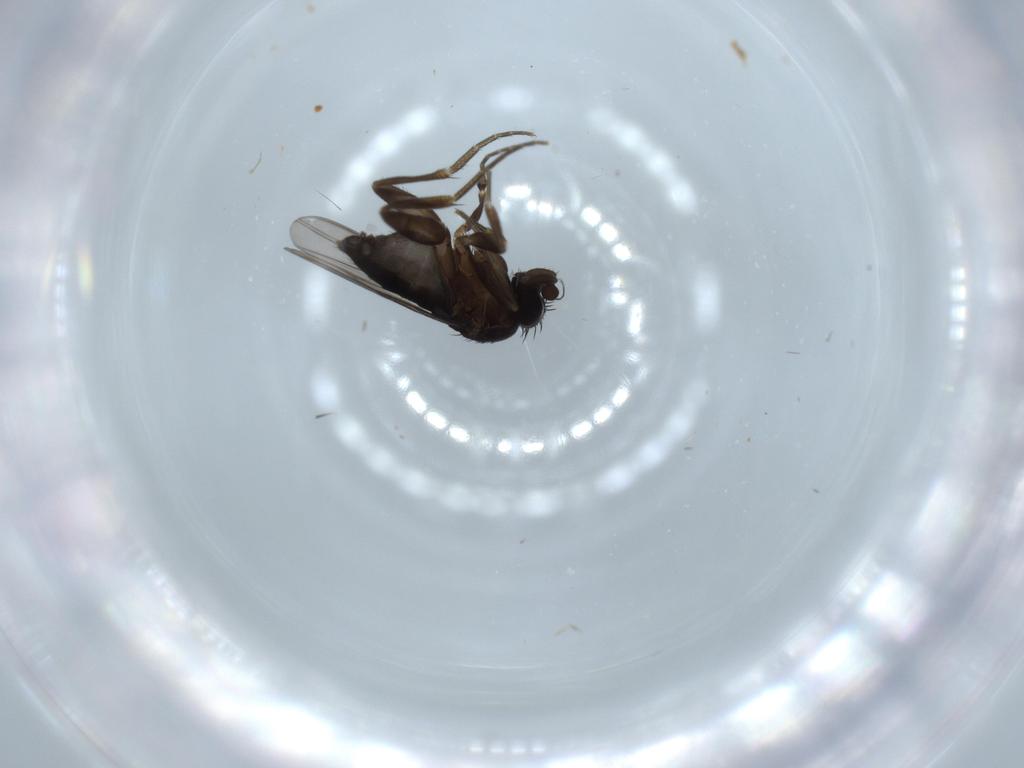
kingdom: Animalia
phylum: Arthropoda
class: Insecta
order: Diptera
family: Phoridae
